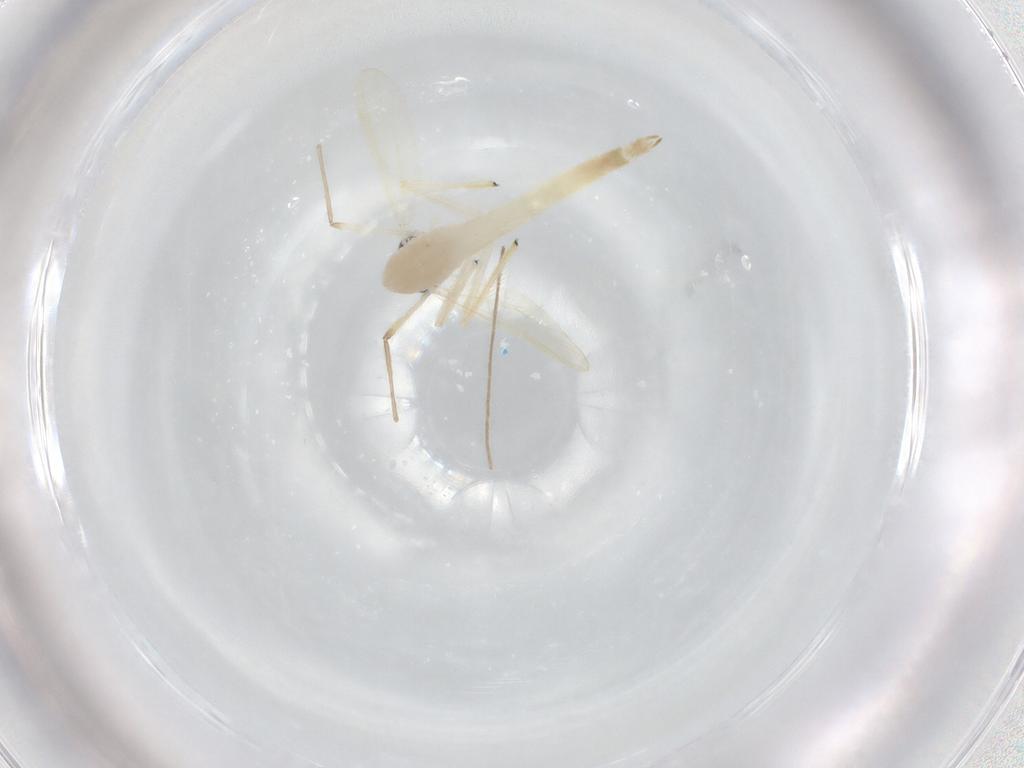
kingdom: Animalia
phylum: Arthropoda
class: Insecta
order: Diptera
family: Chironomidae
